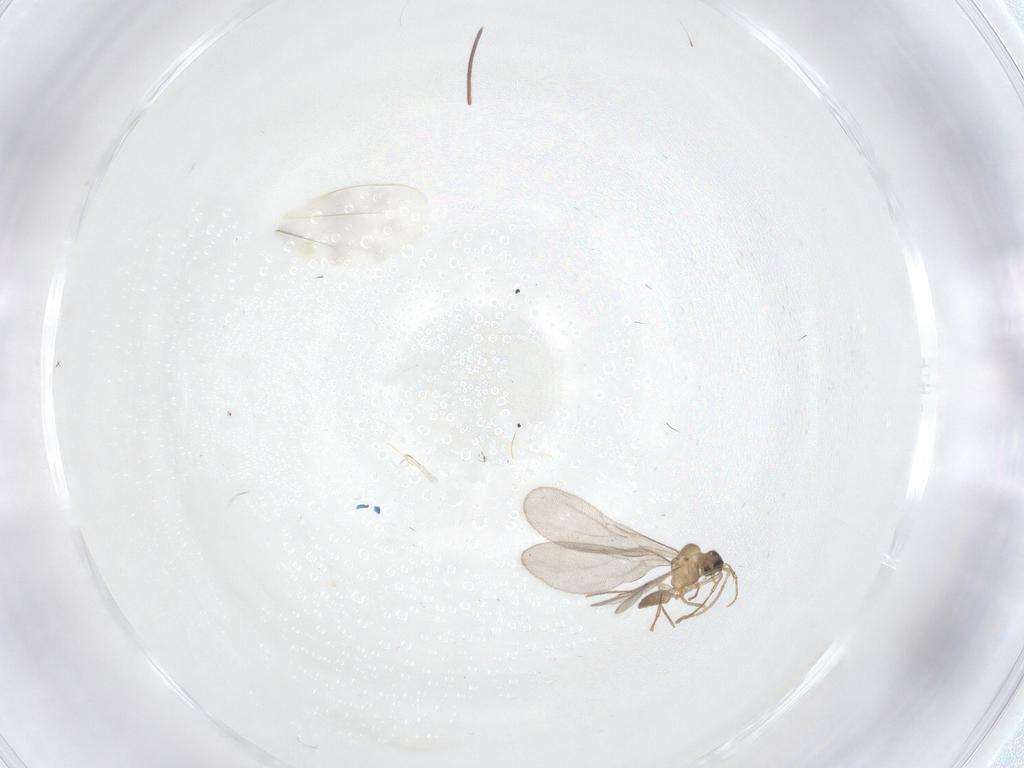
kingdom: Animalia
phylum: Arthropoda
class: Insecta
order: Hymenoptera
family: Formicidae
